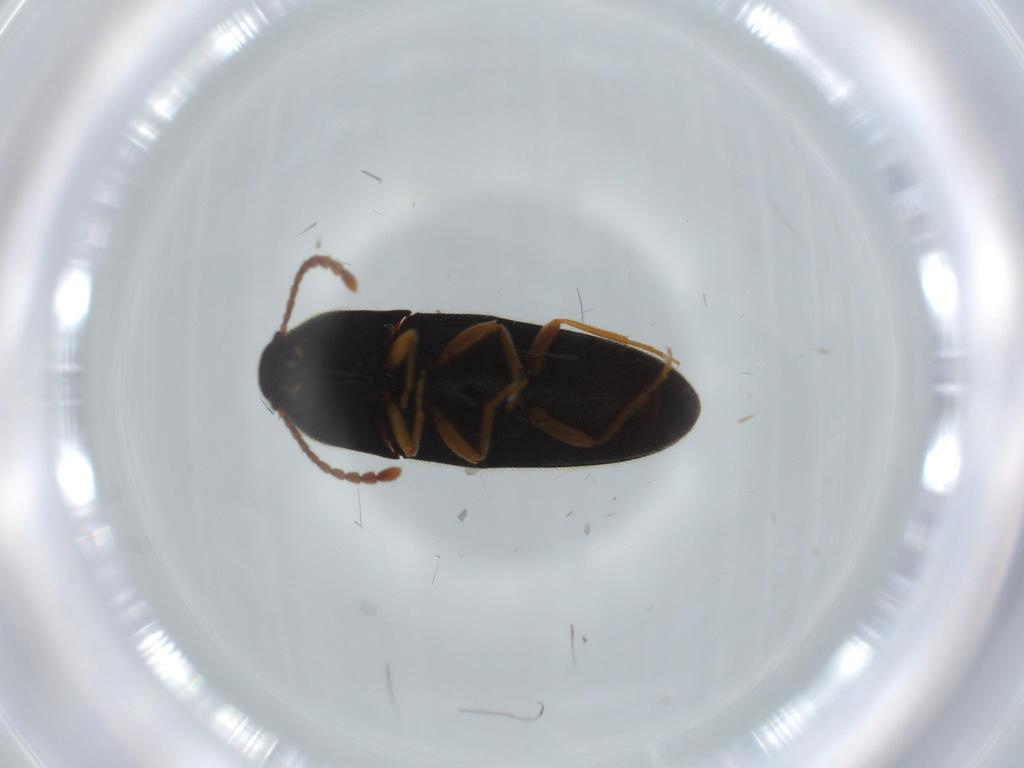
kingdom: Animalia
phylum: Arthropoda
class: Insecta
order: Coleoptera
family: Elateridae
